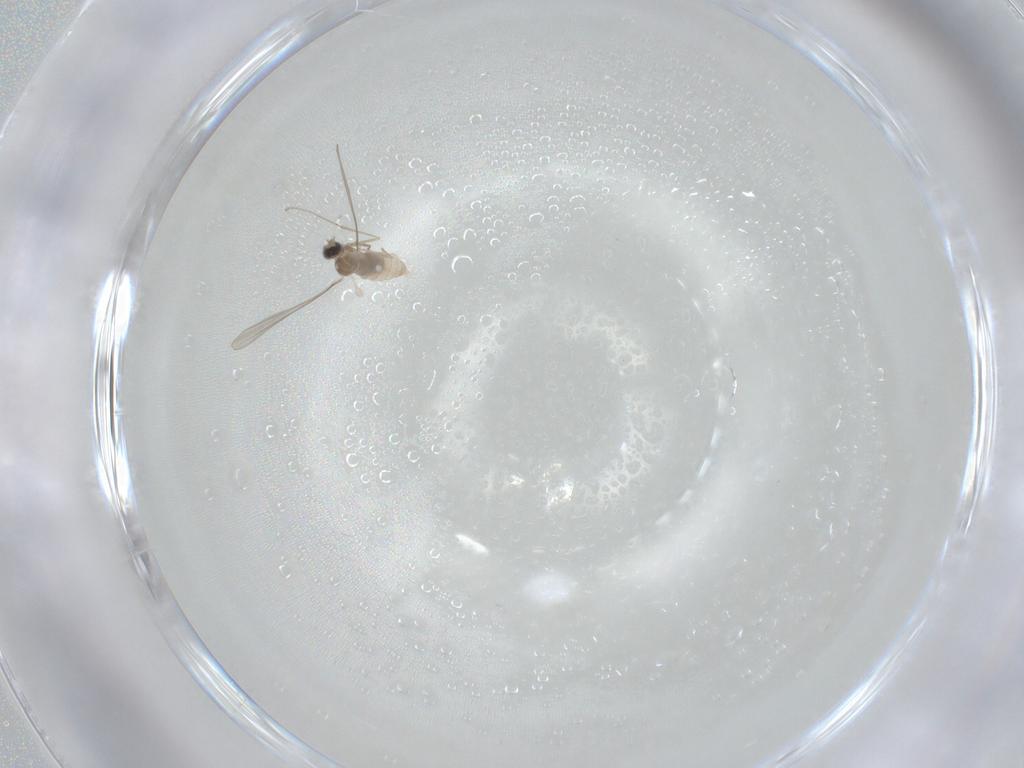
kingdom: Animalia
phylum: Arthropoda
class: Insecta
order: Diptera
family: Chironomidae
